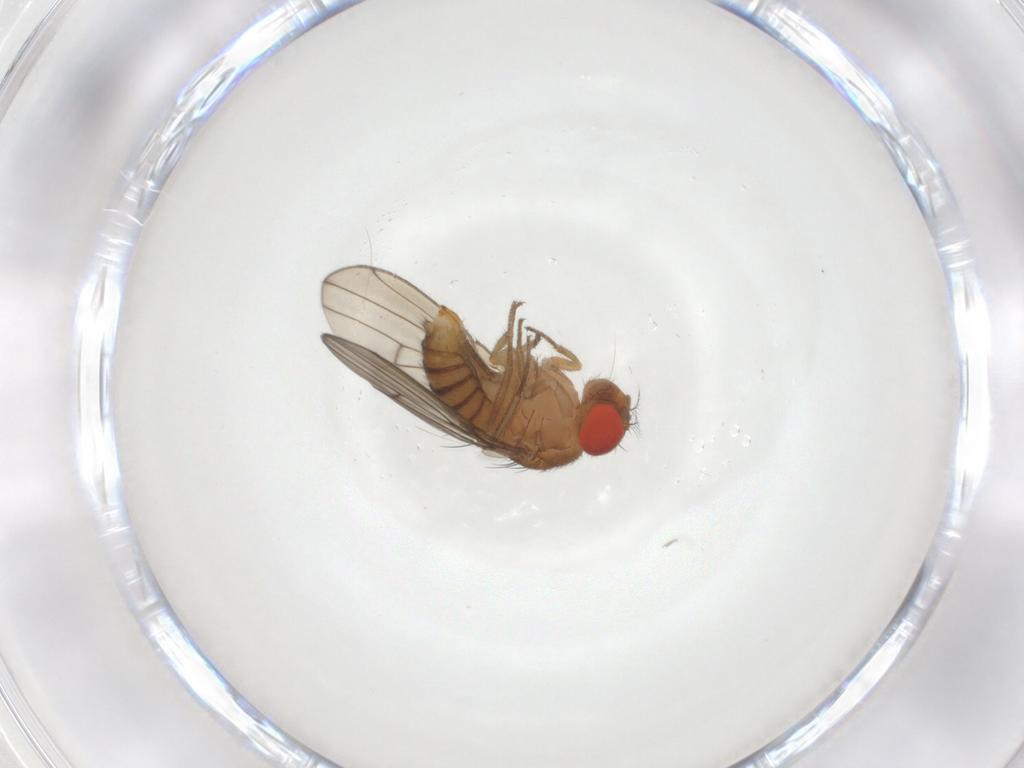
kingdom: Animalia
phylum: Arthropoda
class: Insecta
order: Diptera
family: Drosophilidae
